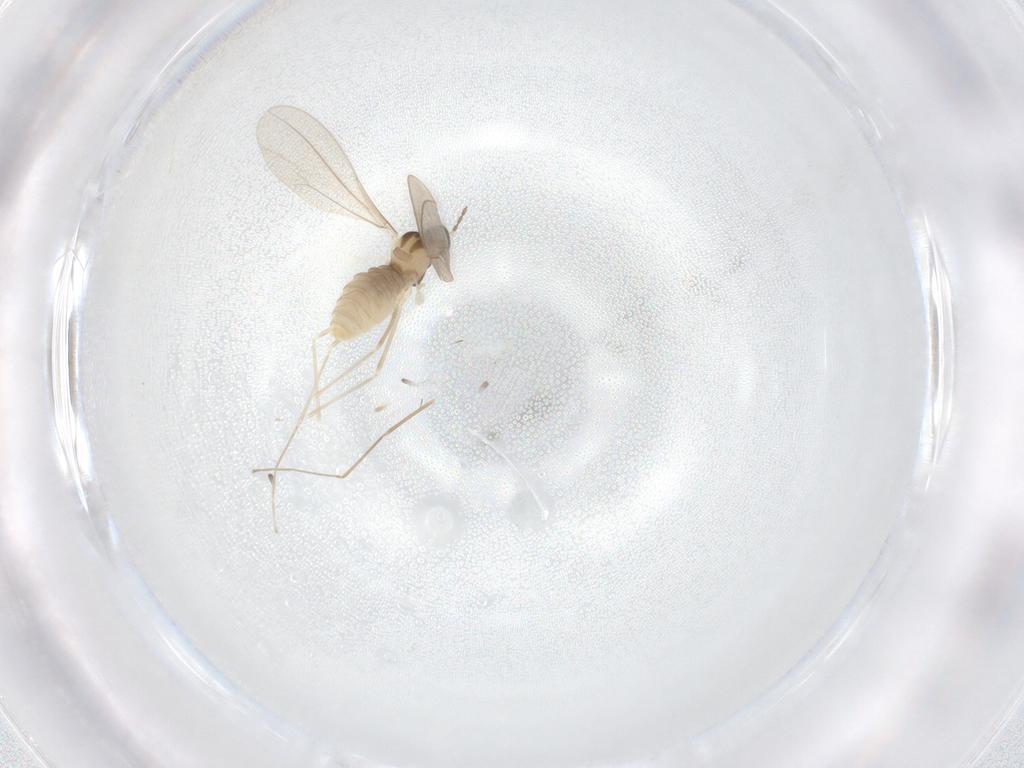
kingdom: Animalia
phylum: Arthropoda
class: Insecta
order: Diptera
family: Cecidomyiidae
